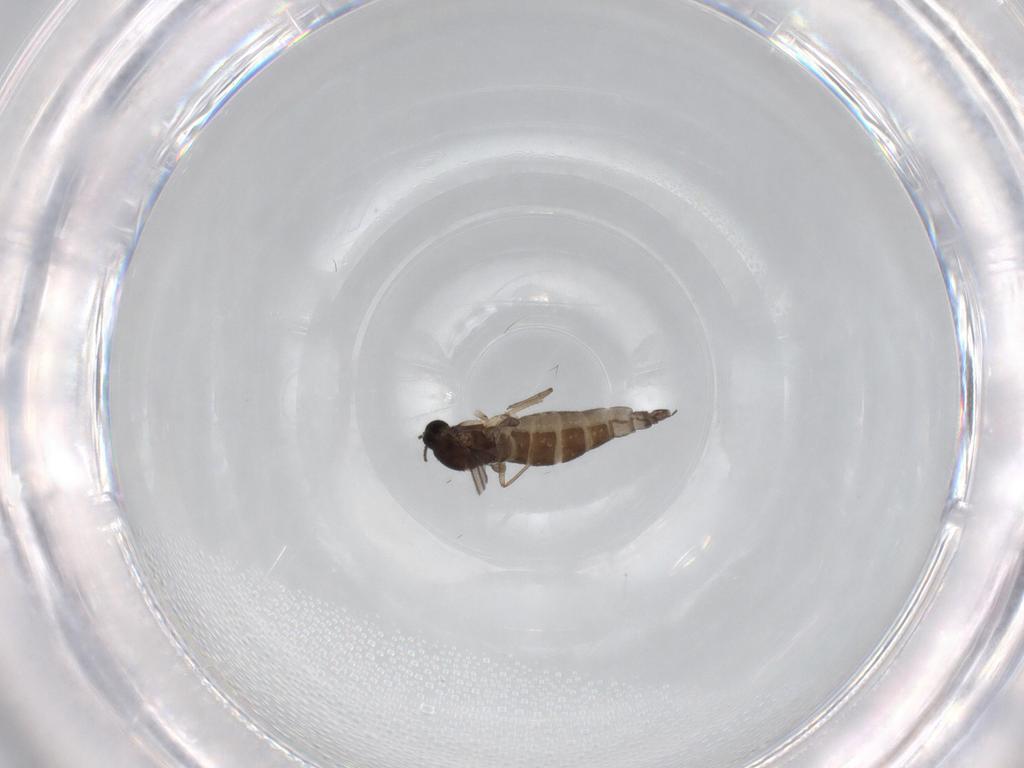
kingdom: Animalia
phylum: Arthropoda
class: Insecta
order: Diptera
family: Sciaridae
